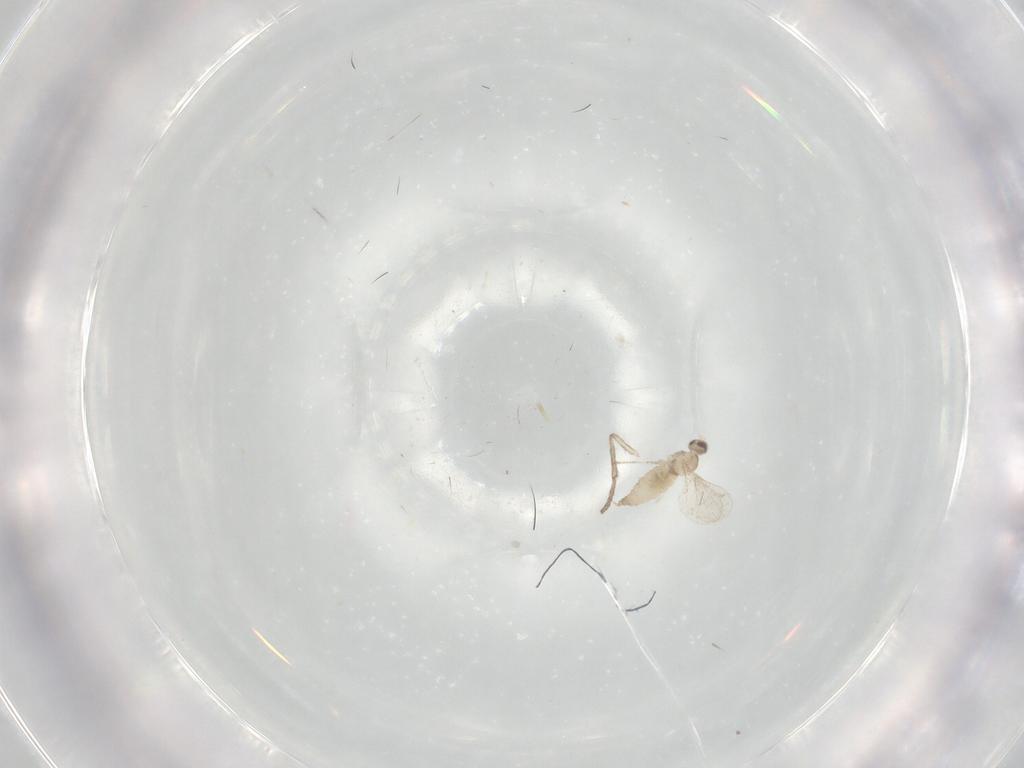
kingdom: Animalia
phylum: Arthropoda
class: Insecta
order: Diptera
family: Cecidomyiidae
